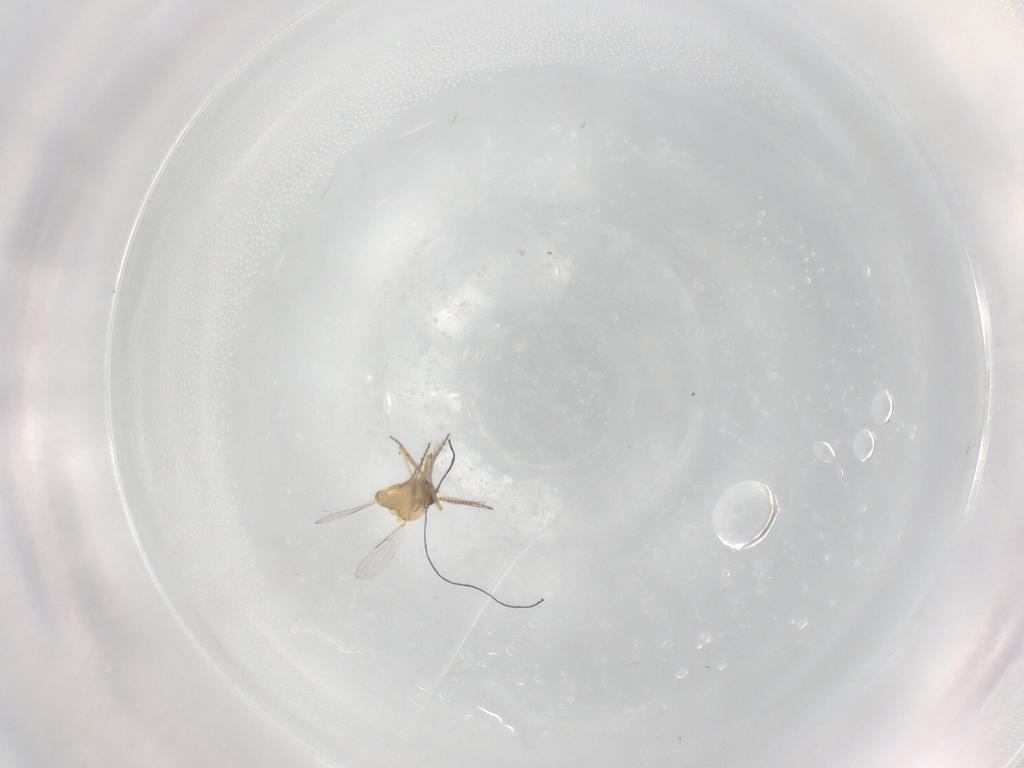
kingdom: Animalia
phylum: Arthropoda
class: Insecta
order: Diptera
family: Ceratopogonidae
